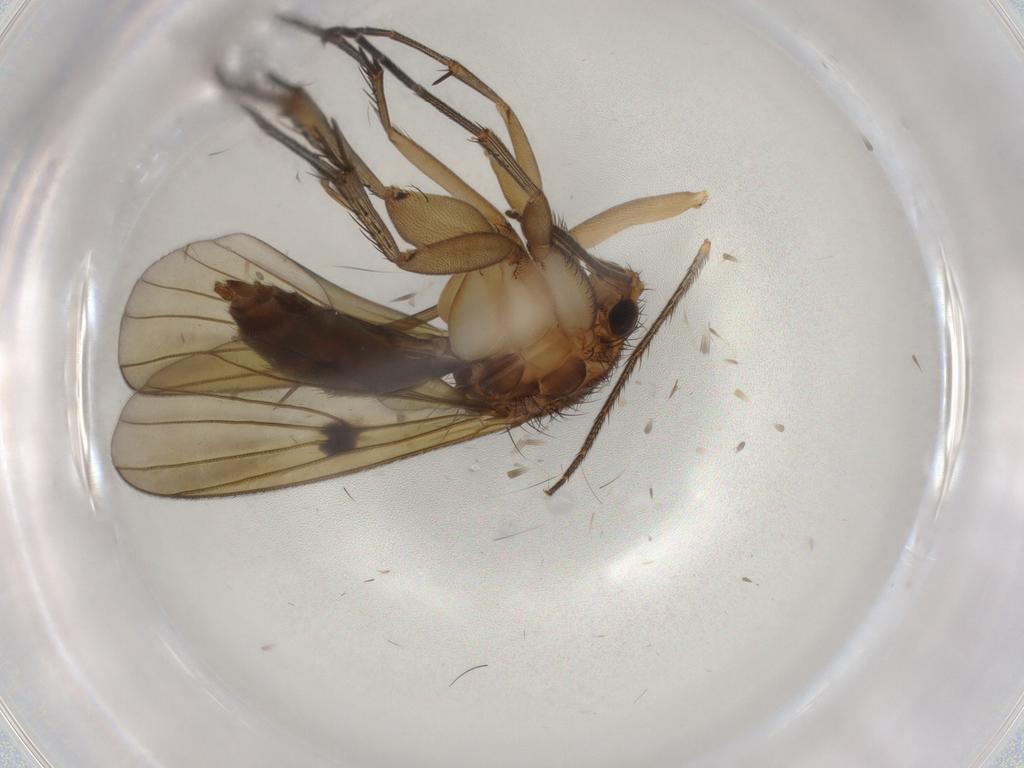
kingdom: Animalia
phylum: Arthropoda
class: Insecta
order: Diptera
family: Mycetophilidae
